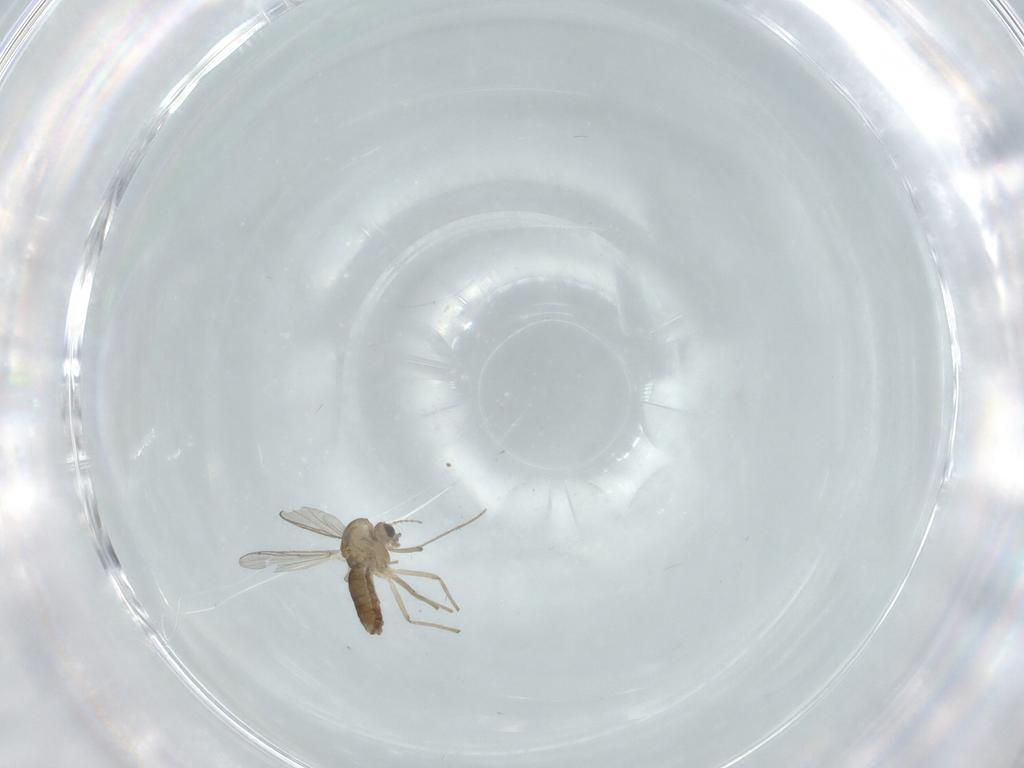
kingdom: Animalia
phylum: Arthropoda
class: Insecta
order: Diptera
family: Chironomidae
